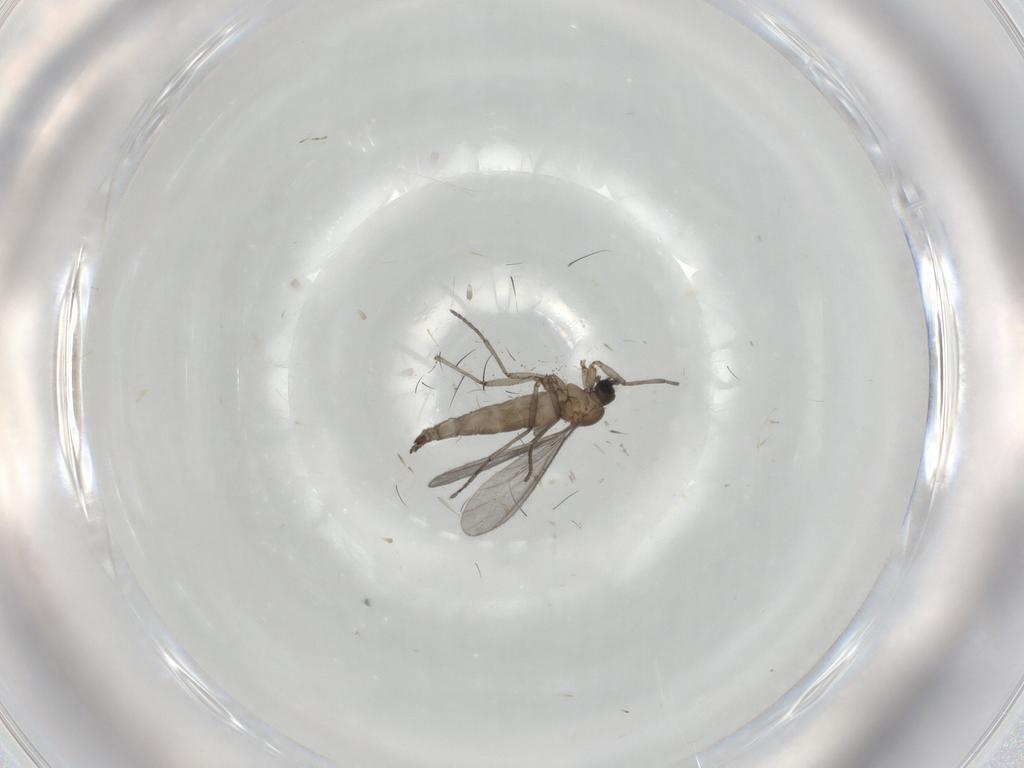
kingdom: Animalia
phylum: Arthropoda
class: Insecta
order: Diptera
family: Sciaridae
